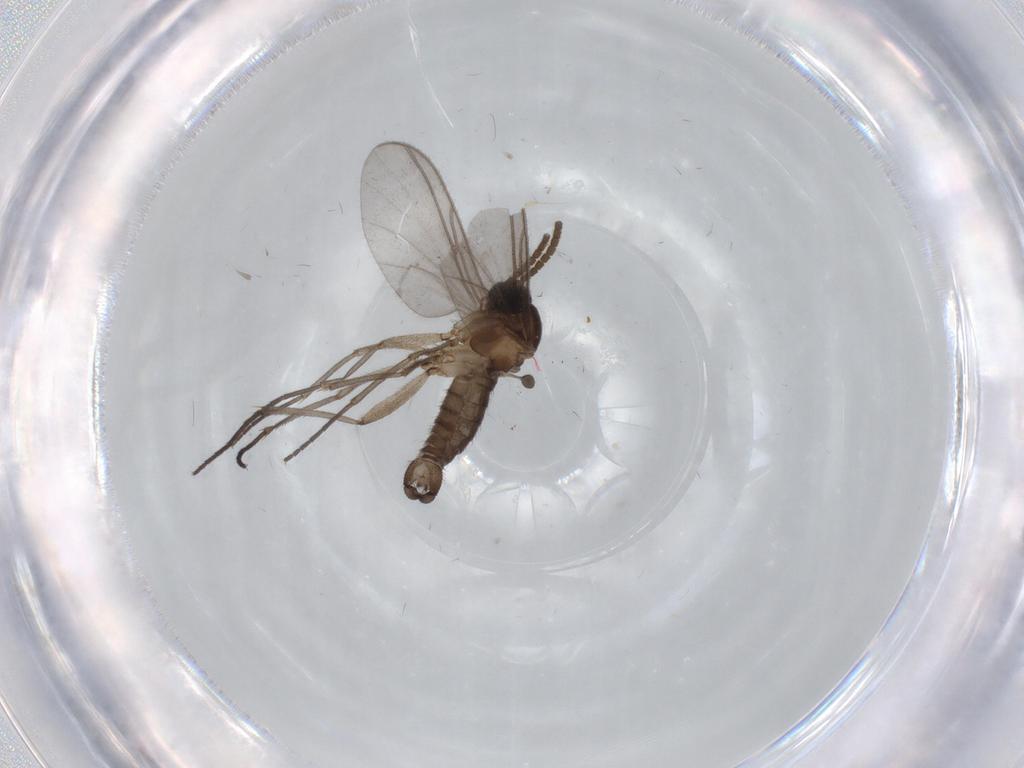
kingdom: Animalia
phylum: Arthropoda
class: Insecta
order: Diptera
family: Cecidomyiidae
